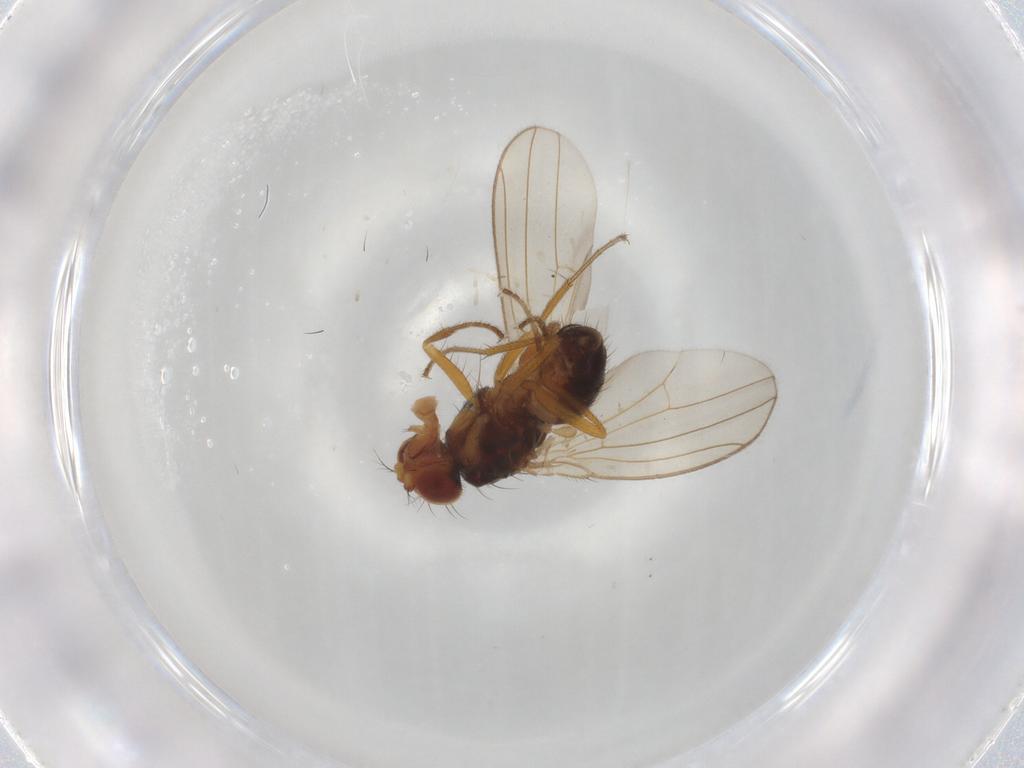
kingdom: Animalia
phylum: Arthropoda
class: Insecta
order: Diptera
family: Drosophilidae
